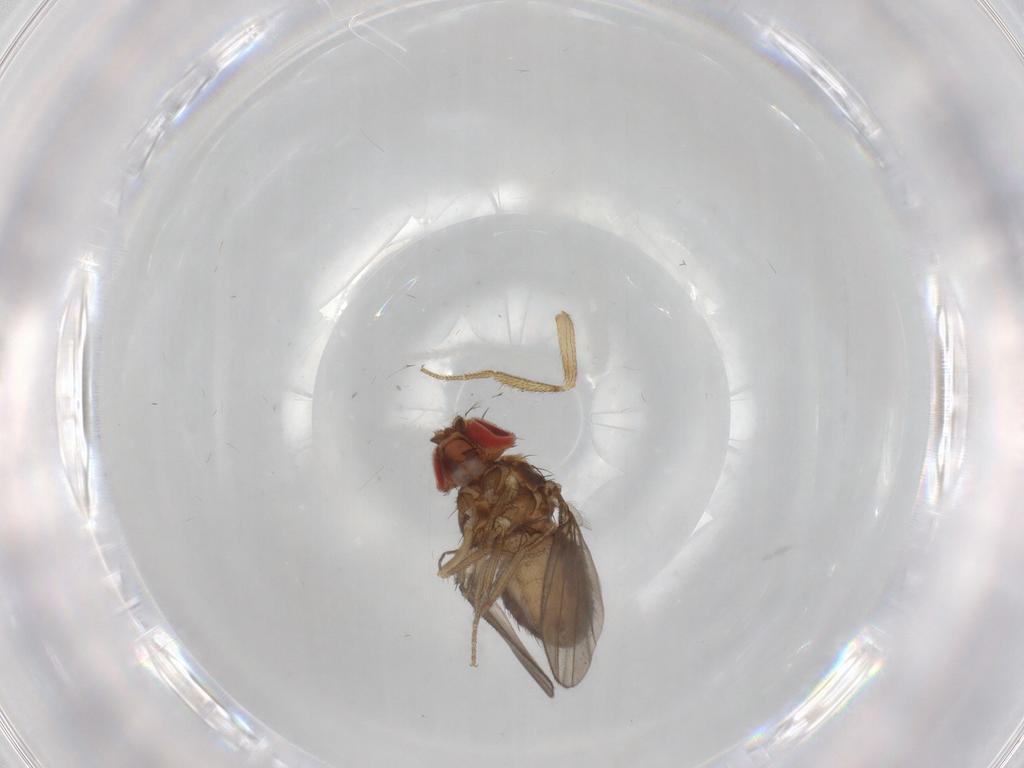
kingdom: Animalia
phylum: Arthropoda
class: Insecta
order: Diptera
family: Drosophilidae
